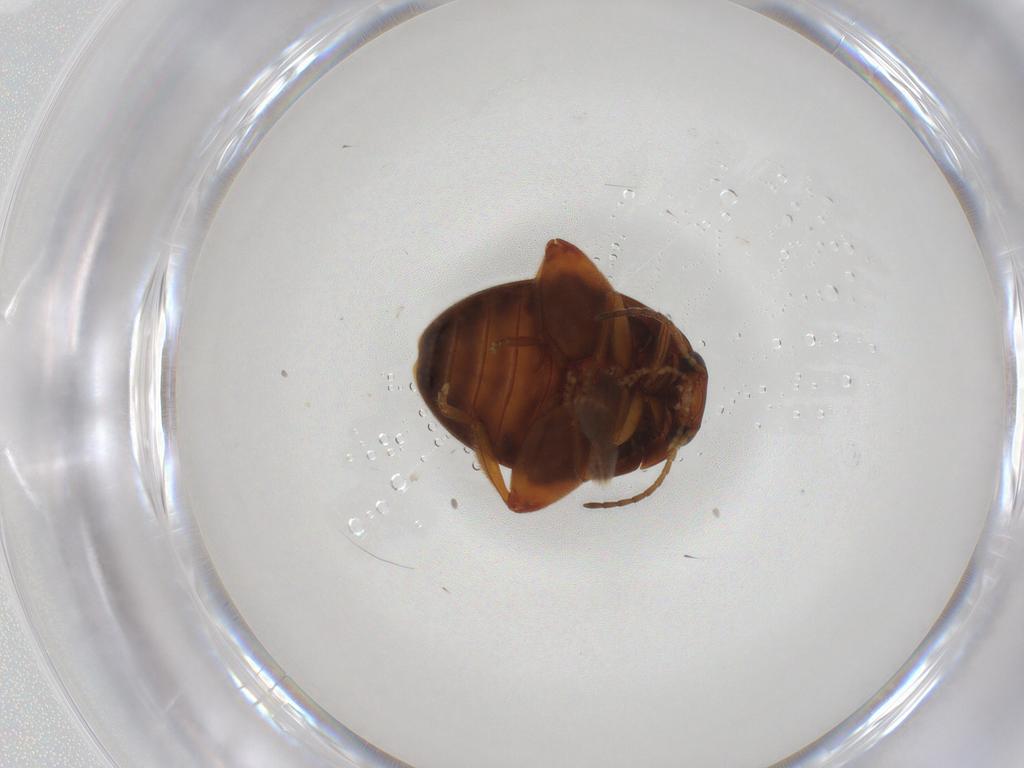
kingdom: Animalia
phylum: Arthropoda
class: Insecta
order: Coleoptera
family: Scirtidae
